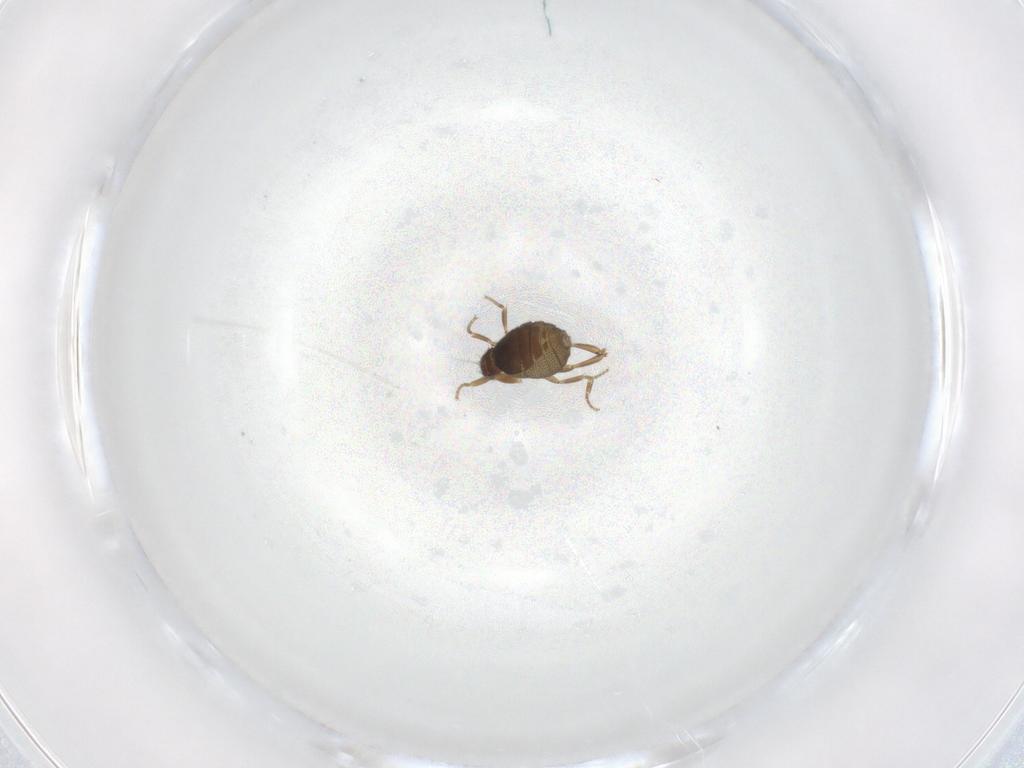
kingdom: Animalia
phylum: Arthropoda
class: Insecta
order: Diptera
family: Phoridae
